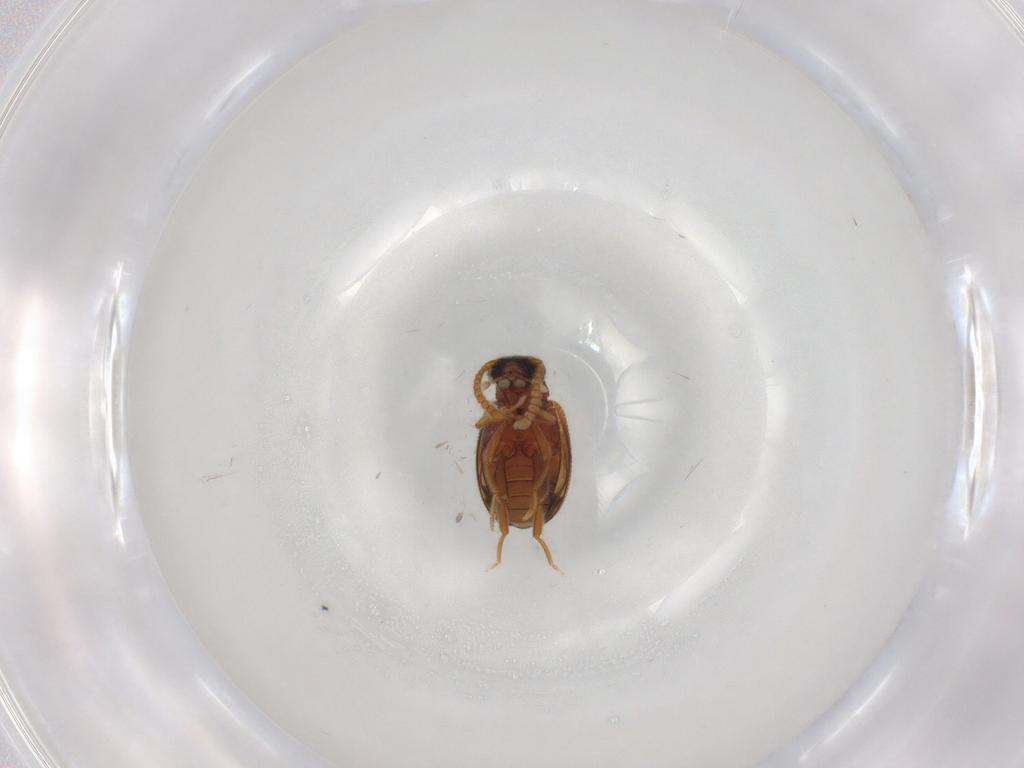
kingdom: Animalia
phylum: Arthropoda
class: Insecta
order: Coleoptera
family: Aderidae
